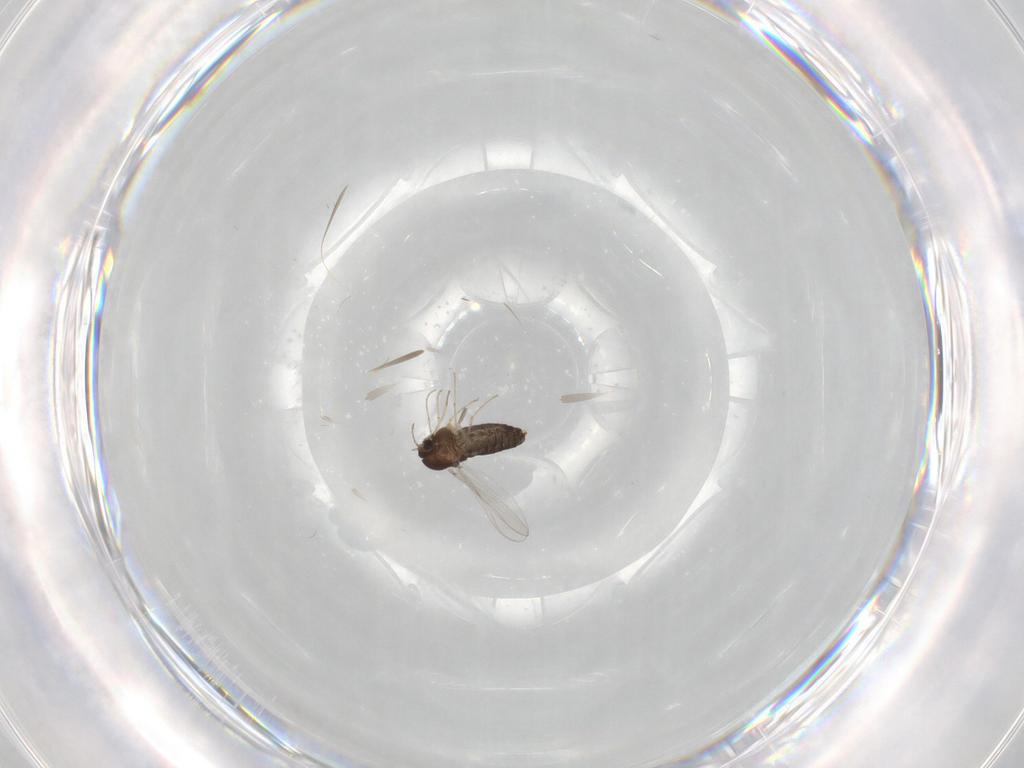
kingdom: Animalia
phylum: Arthropoda
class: Insecta
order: Diptera
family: Chironomidae
